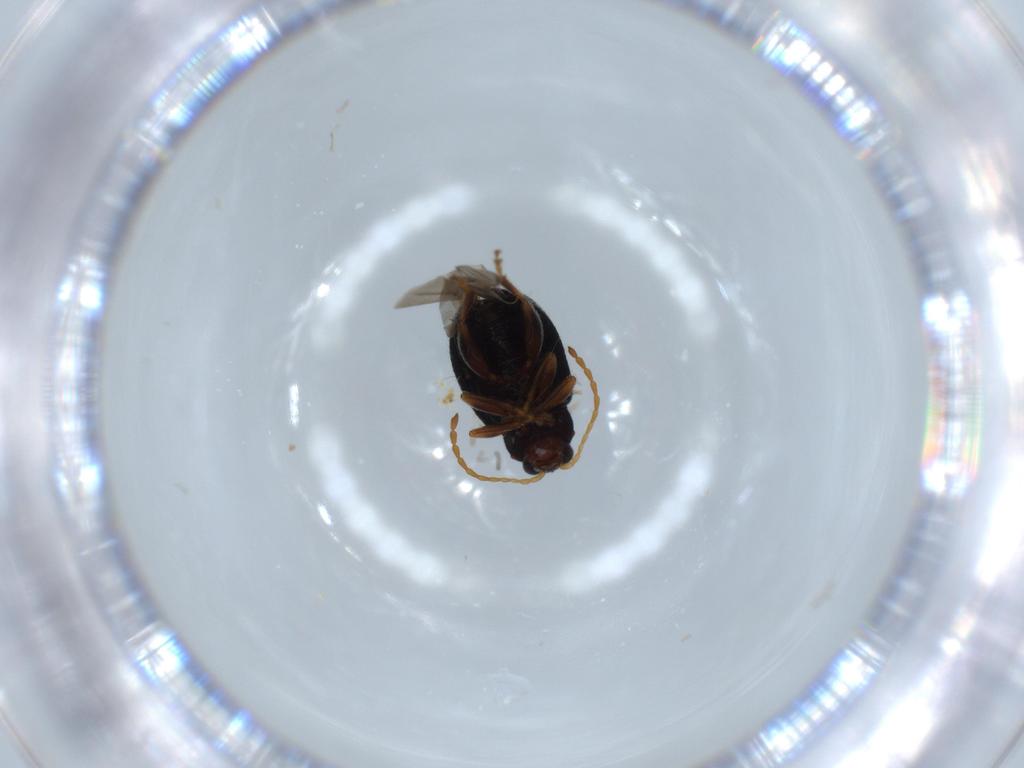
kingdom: Animalia
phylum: Arthropoda
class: Insecta
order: Coleoptera
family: Chrysomelidae
